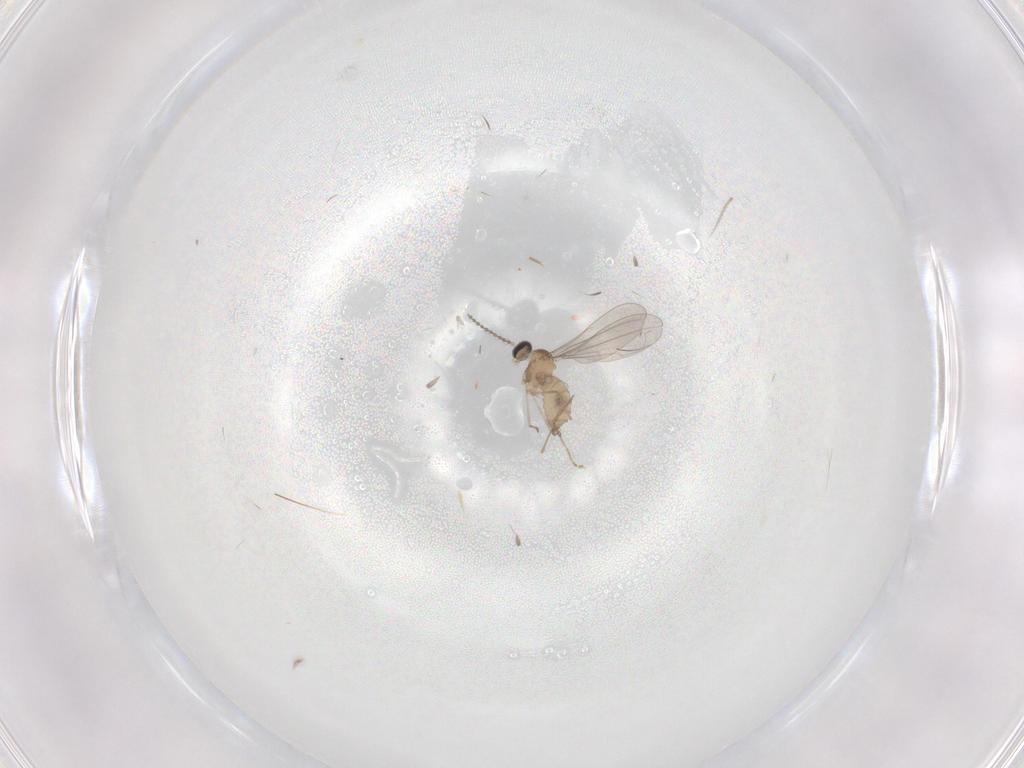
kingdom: Animalia
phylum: Arthropoda
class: Insecta
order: Diptera
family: Cecidomyiidae
